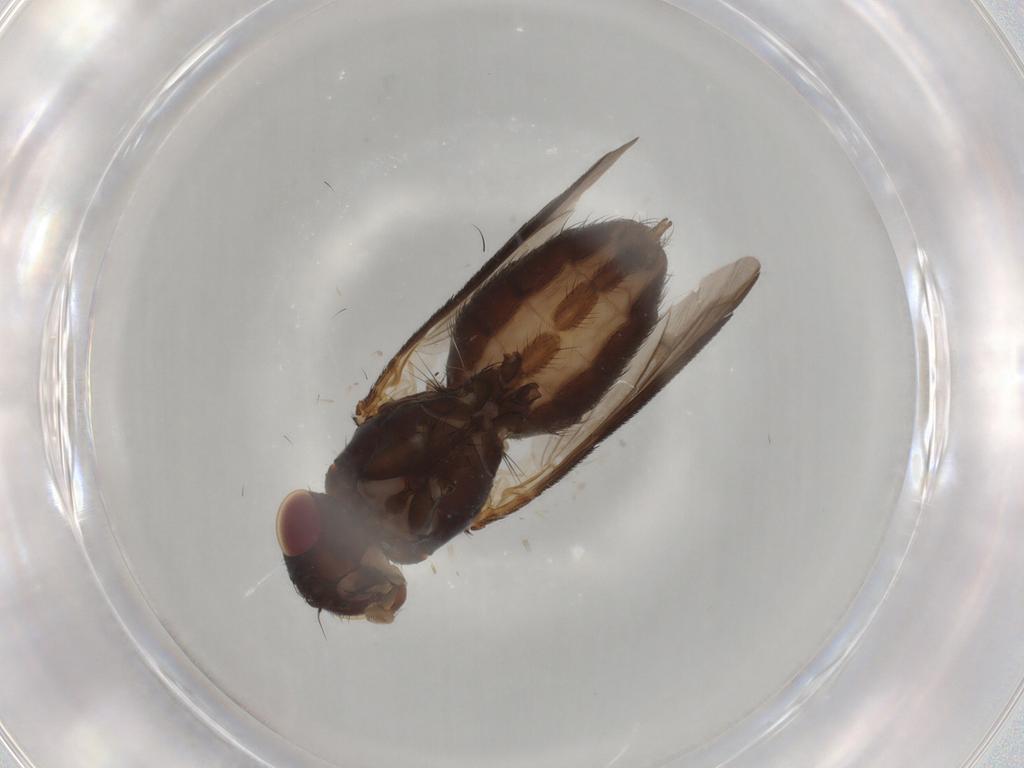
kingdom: Animalia
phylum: Arthropoda
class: Insecta
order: Diptera
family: Tachinidae
